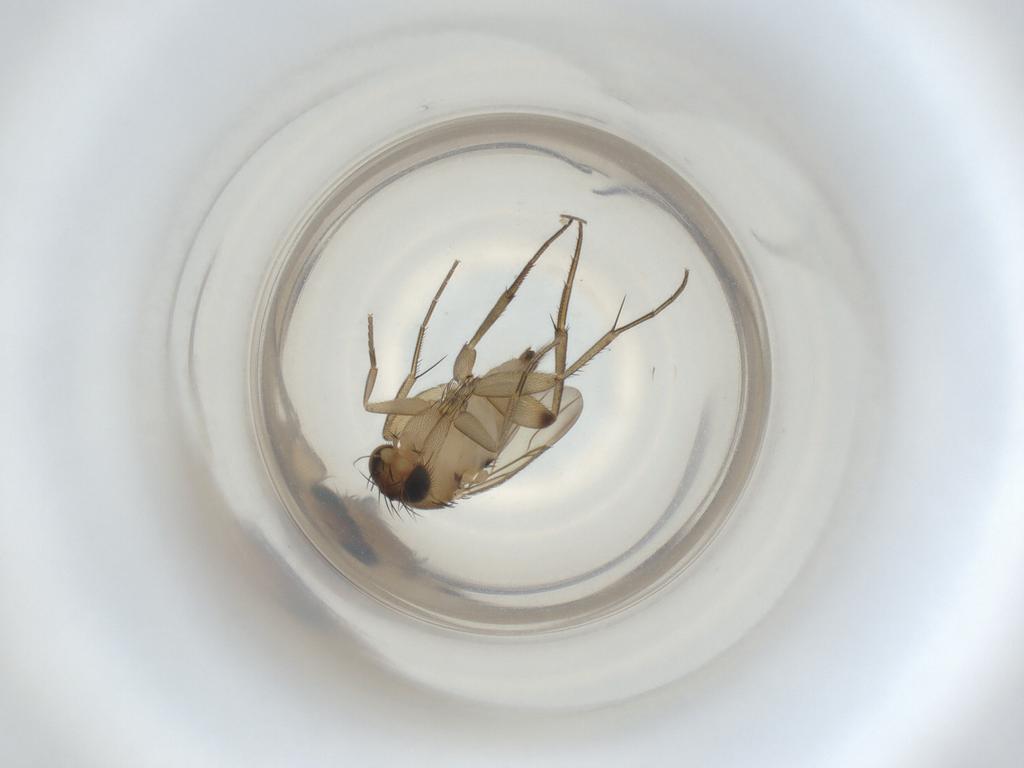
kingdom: Animalia
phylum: Arthropoda
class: Insecta
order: Diptera
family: Phoridae
